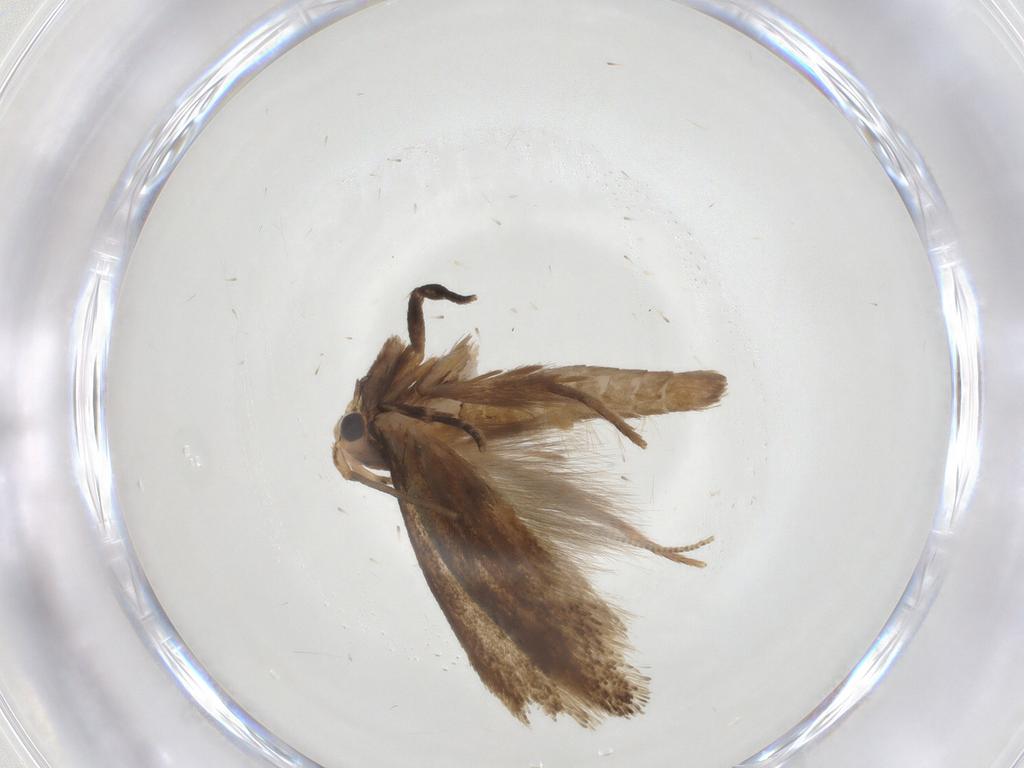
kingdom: Animalia
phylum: Arthropoda
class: Insecta
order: Lepidoptera
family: Tineidae
